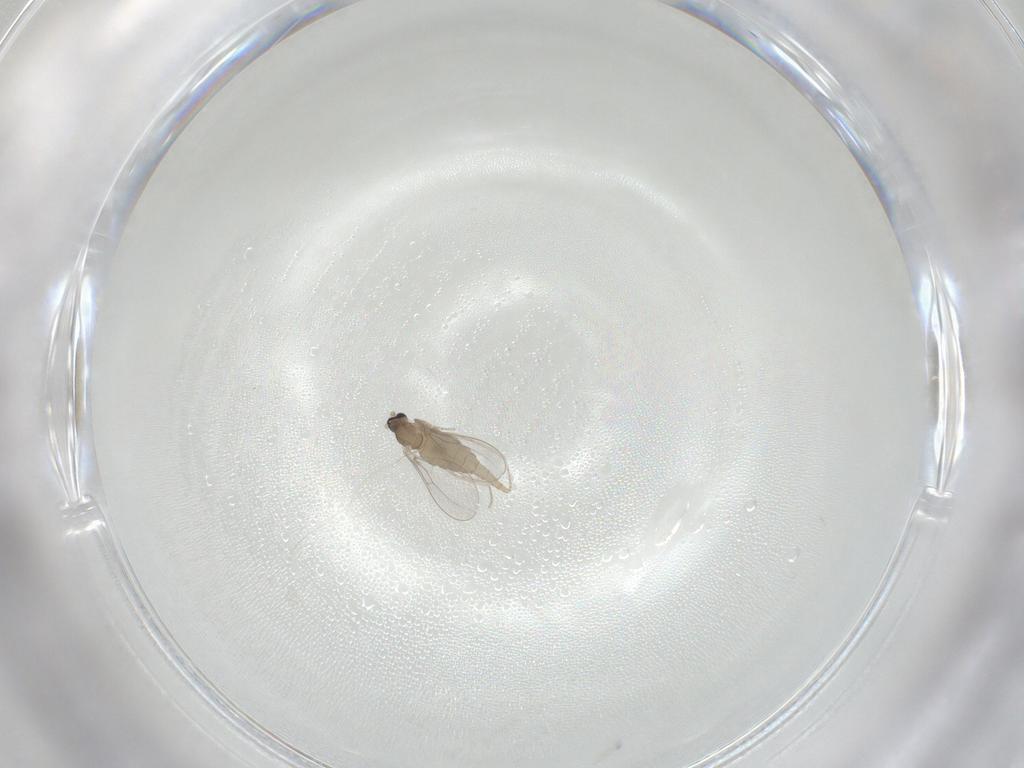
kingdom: Animalia
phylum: Arthropoda
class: Insecta
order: Diptera
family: Cecidomyiidae
